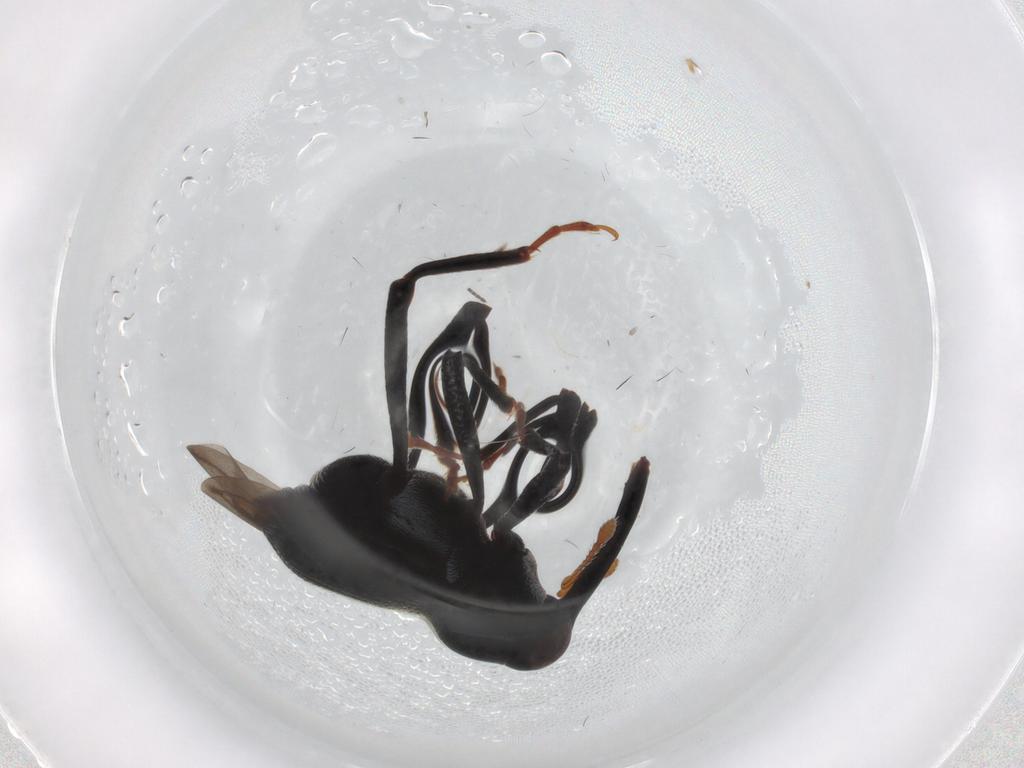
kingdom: Animalia
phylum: Arthropoda
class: Insecta
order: Coleoptera
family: Curculionidae
